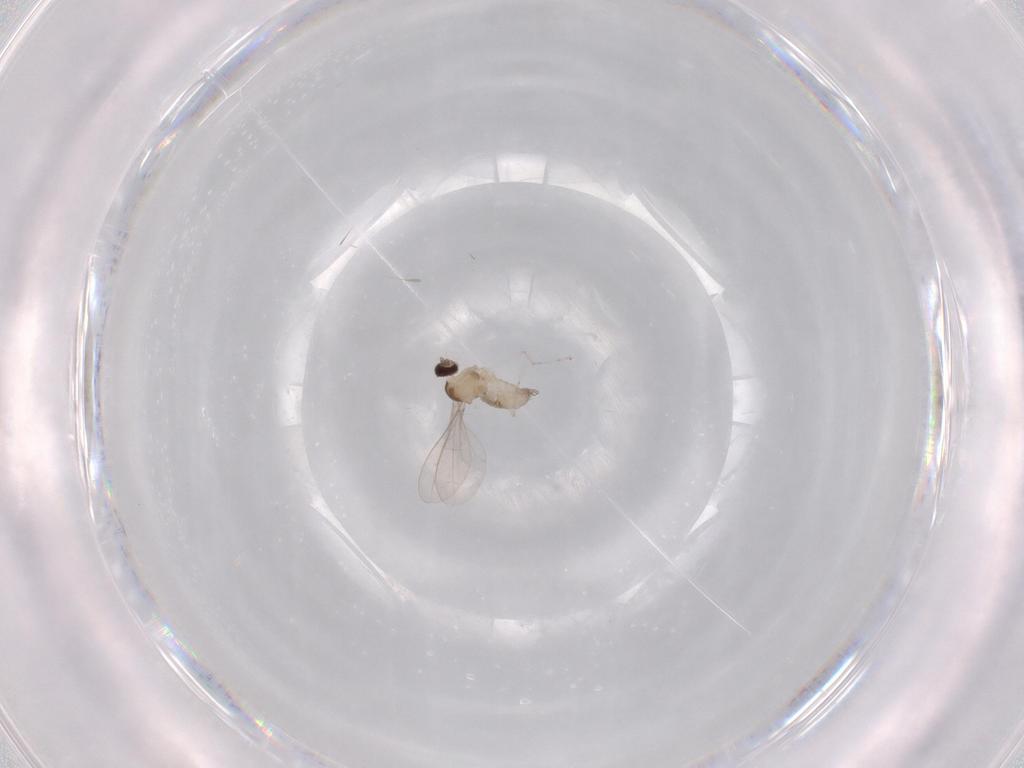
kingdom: Animalia
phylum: Arthropoda
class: Insecta
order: Diptera
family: Cecidomyiidae
